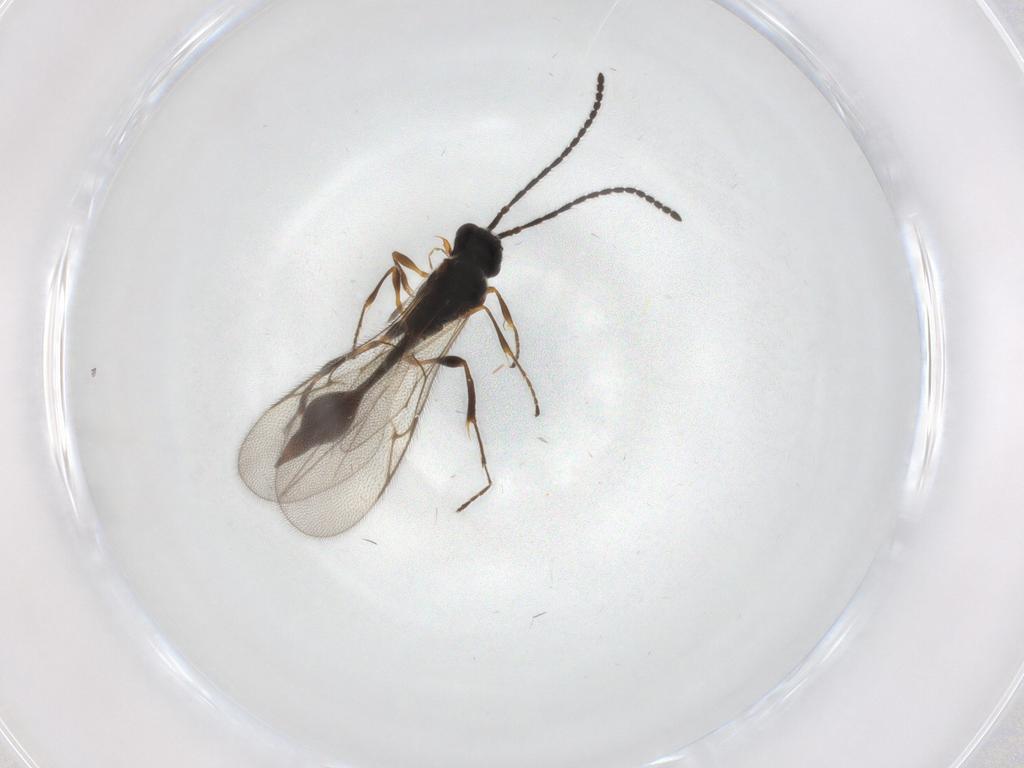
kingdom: Animalia
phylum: Arthropoda
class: Insecta
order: Hymenoptera
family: Diapriidae
